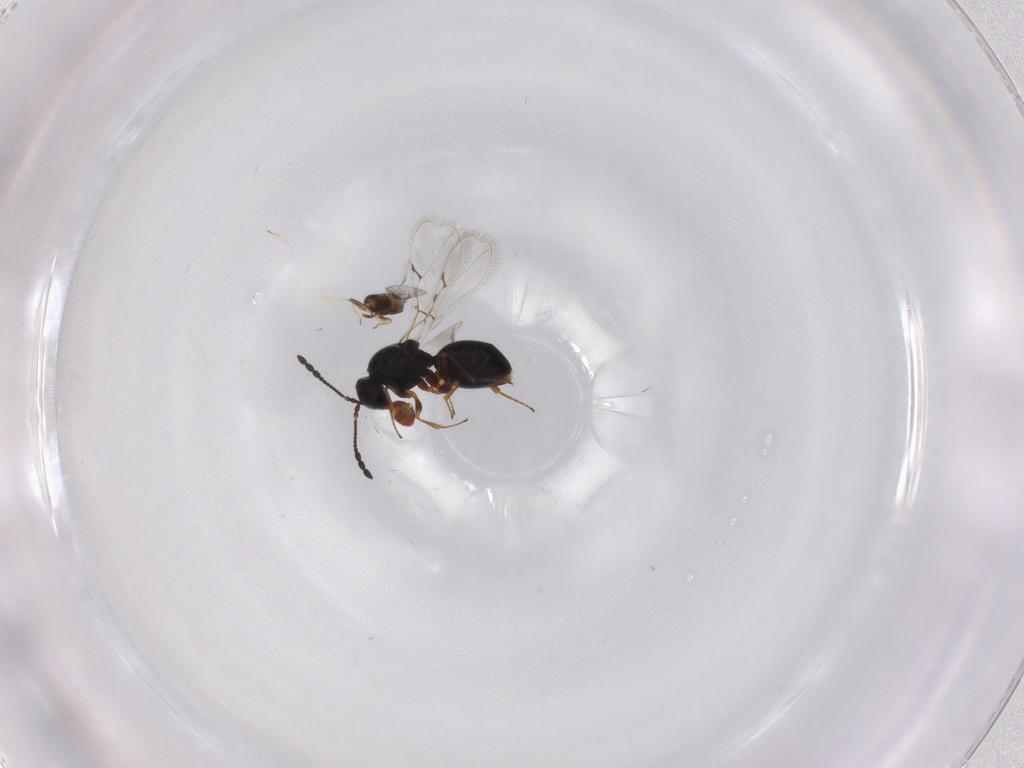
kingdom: Animalia
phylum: Arthropoda
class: Insecta
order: Hymenoptera
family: Trichogrammatidae
